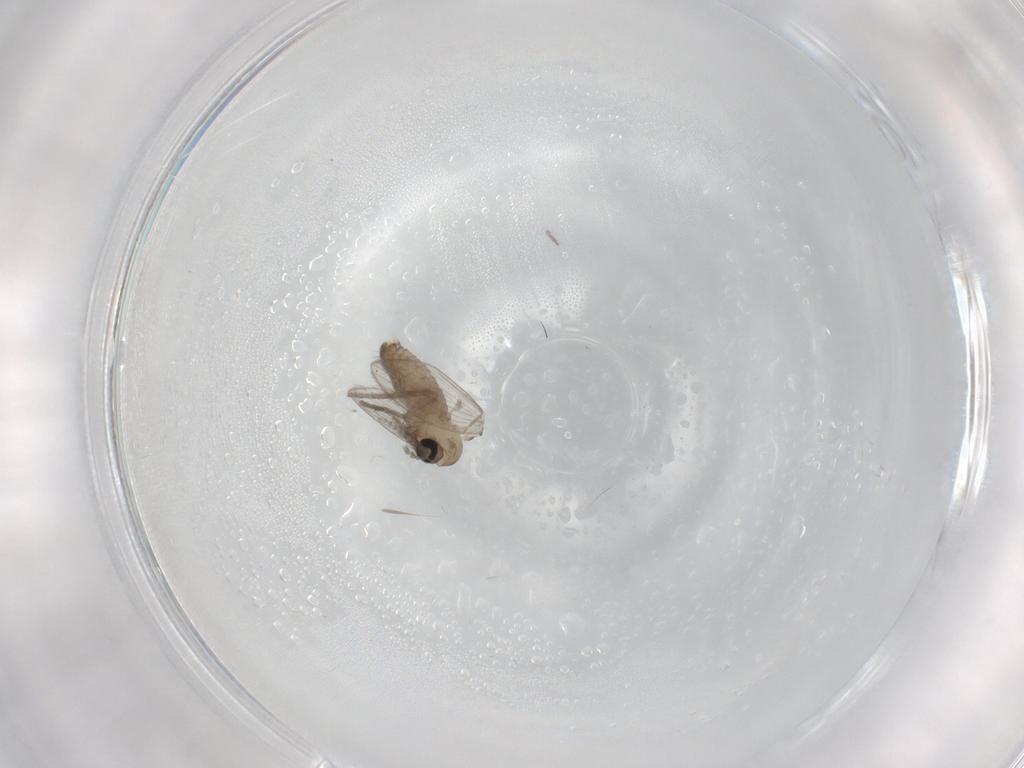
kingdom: Animalia
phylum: Arthropoda
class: Insecta
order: Diptera
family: Psychodidae
